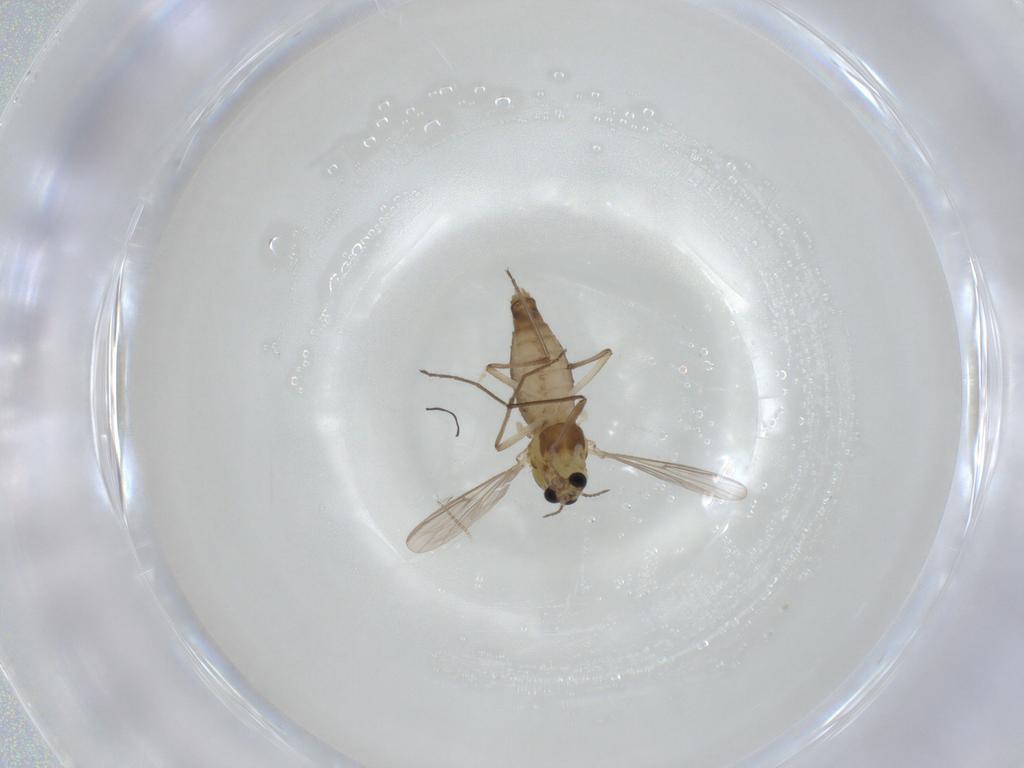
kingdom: Animalia
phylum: Arthropoda
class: Insecta
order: Diptera
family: Chironomidae
